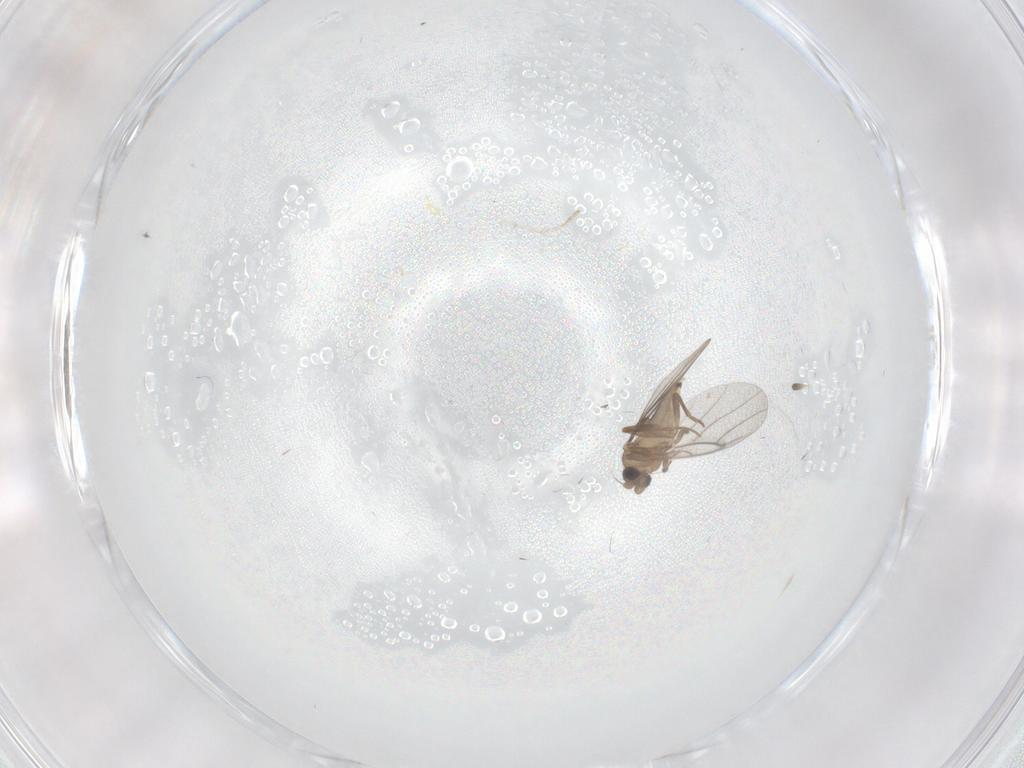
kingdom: Animalia
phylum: Arthropoda
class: Insecta
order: Diptera
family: Cecidomyiidae
